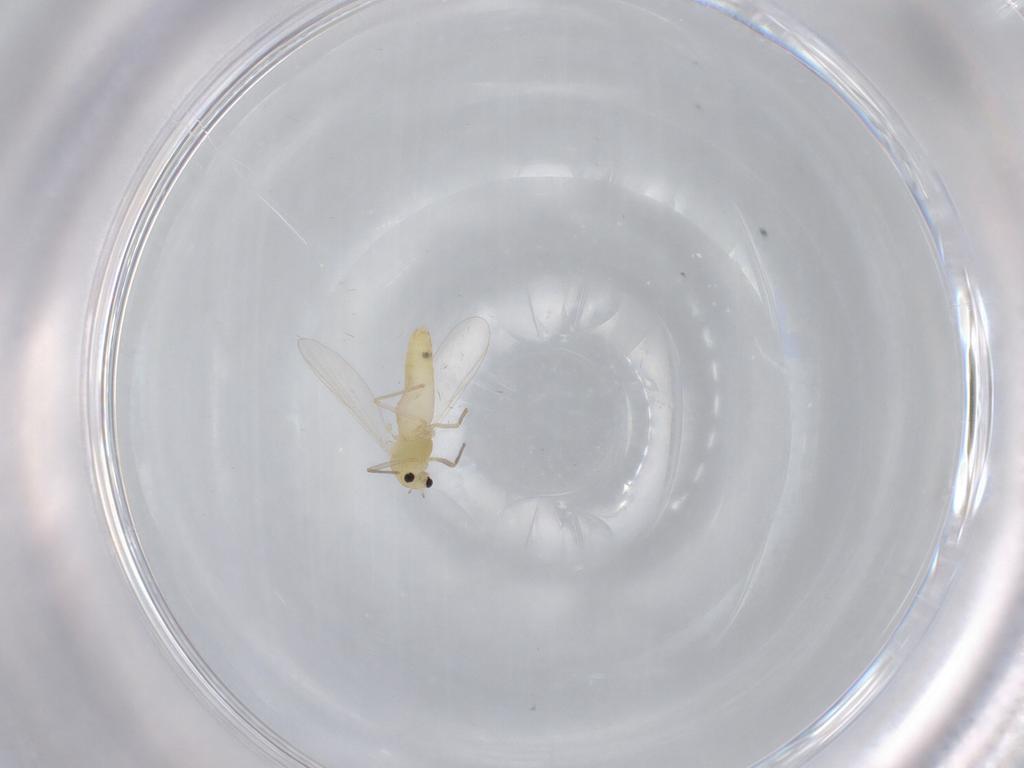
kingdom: Animalia
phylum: Arthropoda
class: Insecta
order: Diptera
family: Chironomidae
